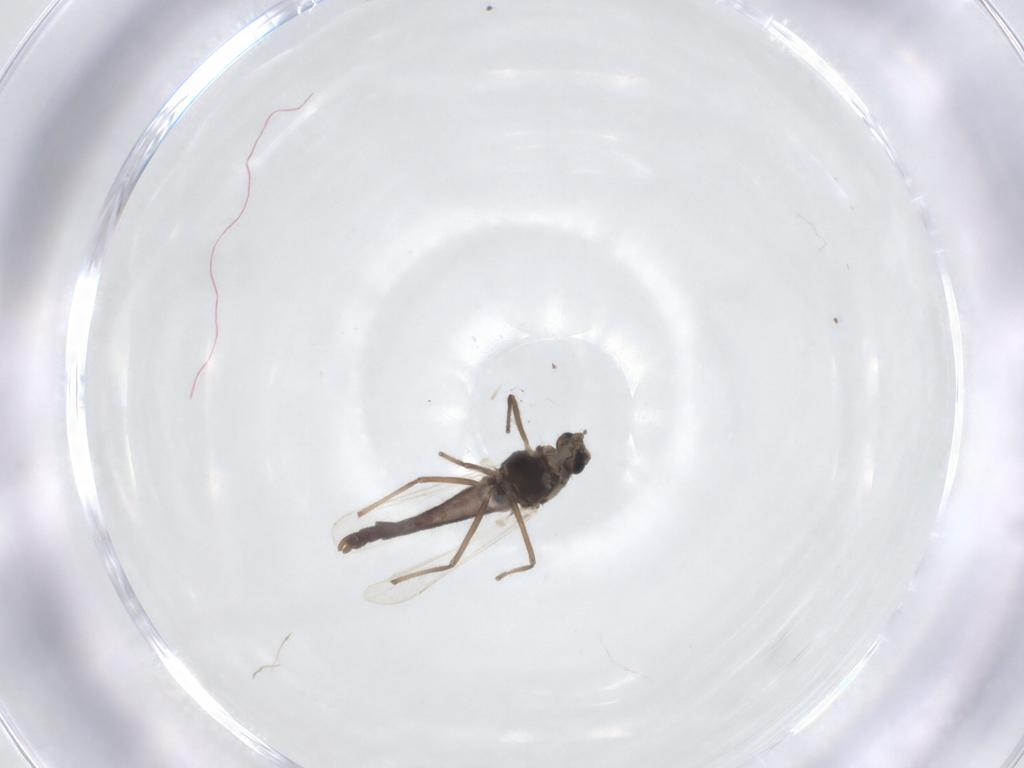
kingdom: Animalia
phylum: Arthropoda
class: Insecta
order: Diptera
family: Chironomidae
